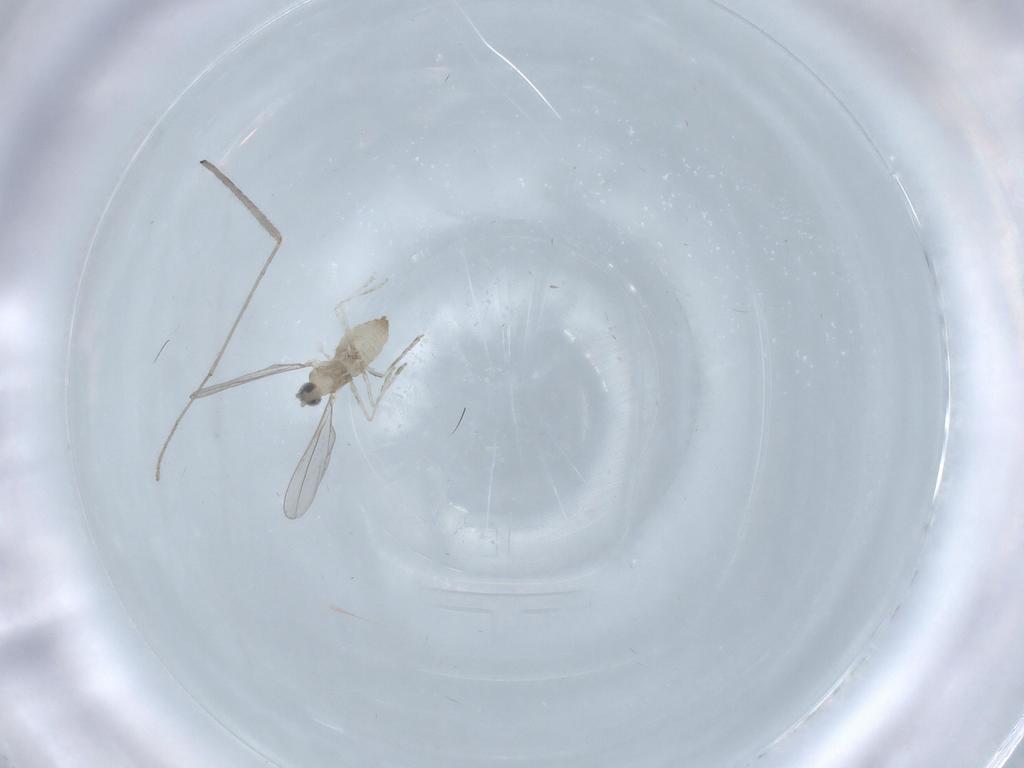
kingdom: Animalia
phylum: Arthropoda
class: Insecta
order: Diptera
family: Limoniidae
